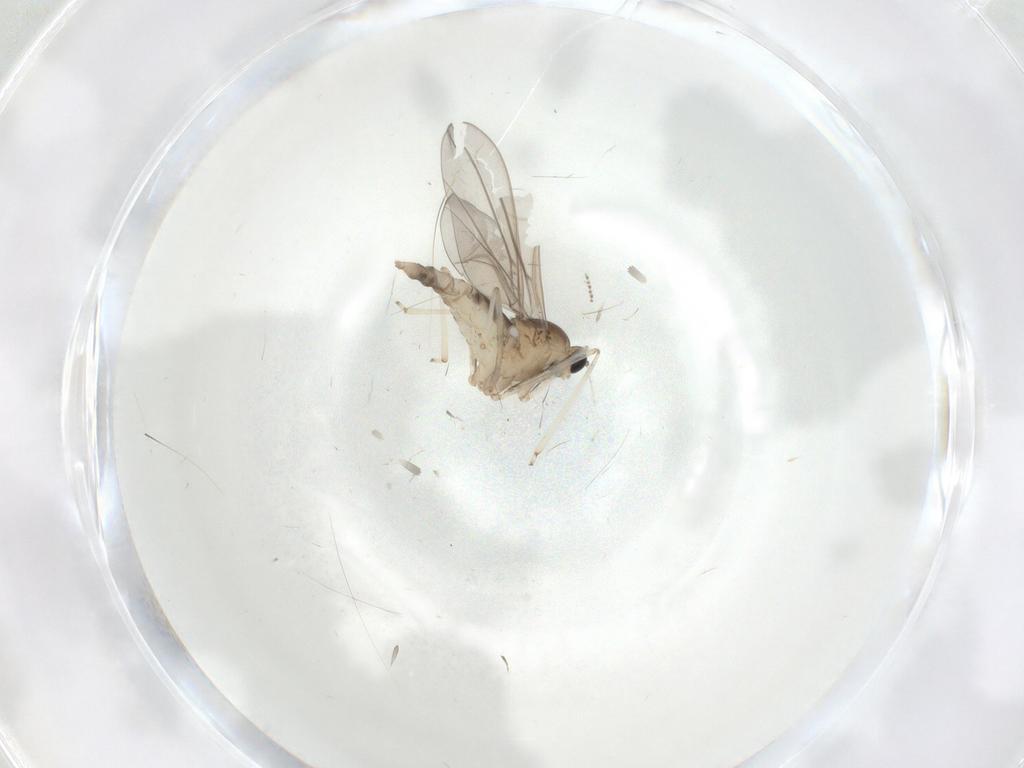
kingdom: Animalia
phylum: Arthropoda
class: Insecta
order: Diptera
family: Cecidomyiidae
